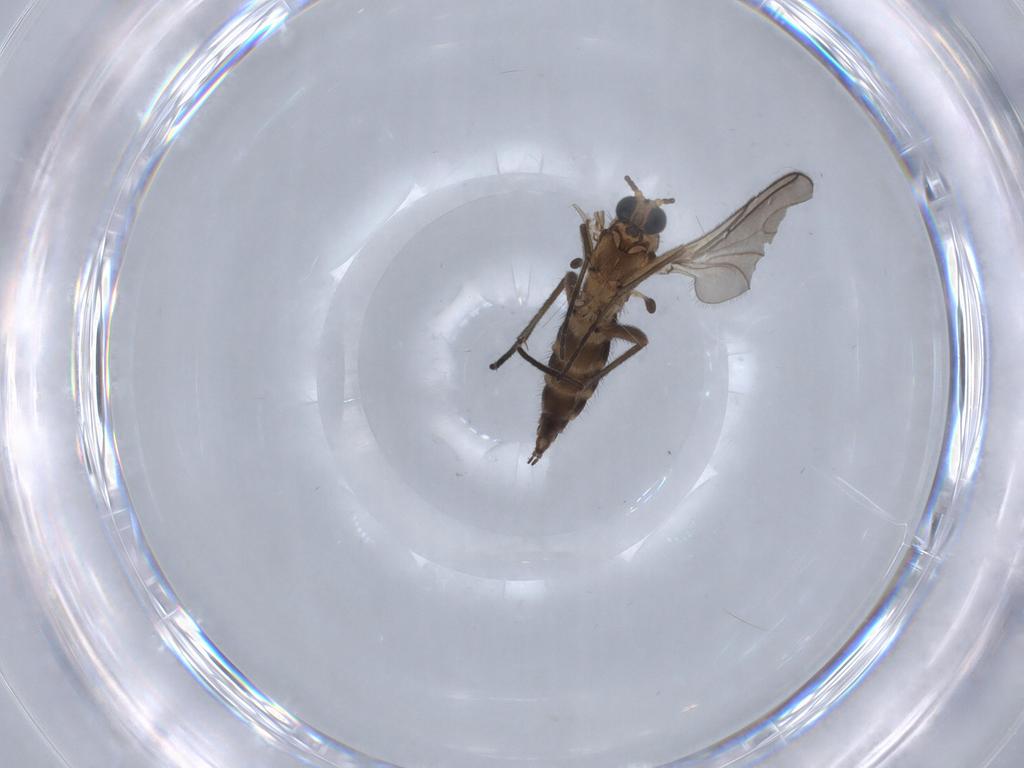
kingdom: Animalia
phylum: Arthropoda
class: Insecta
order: Diptera
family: Sciaridae
